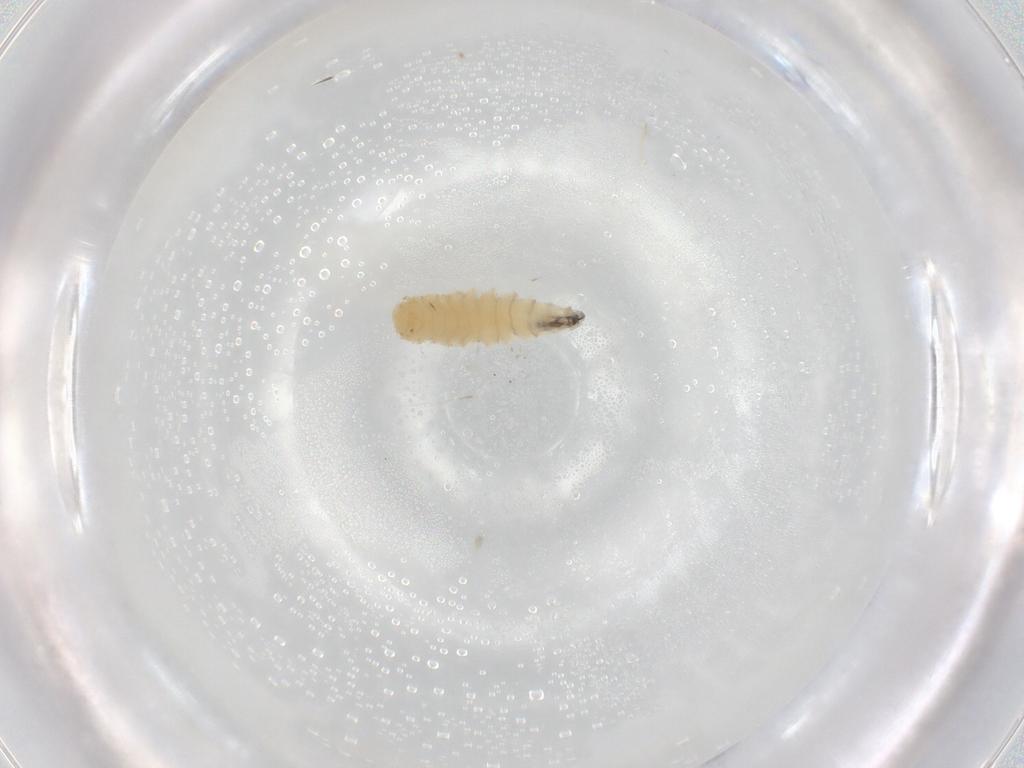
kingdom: Animalia
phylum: Arthropoda
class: Insecta
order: Diptera
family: Sarcophagidae
